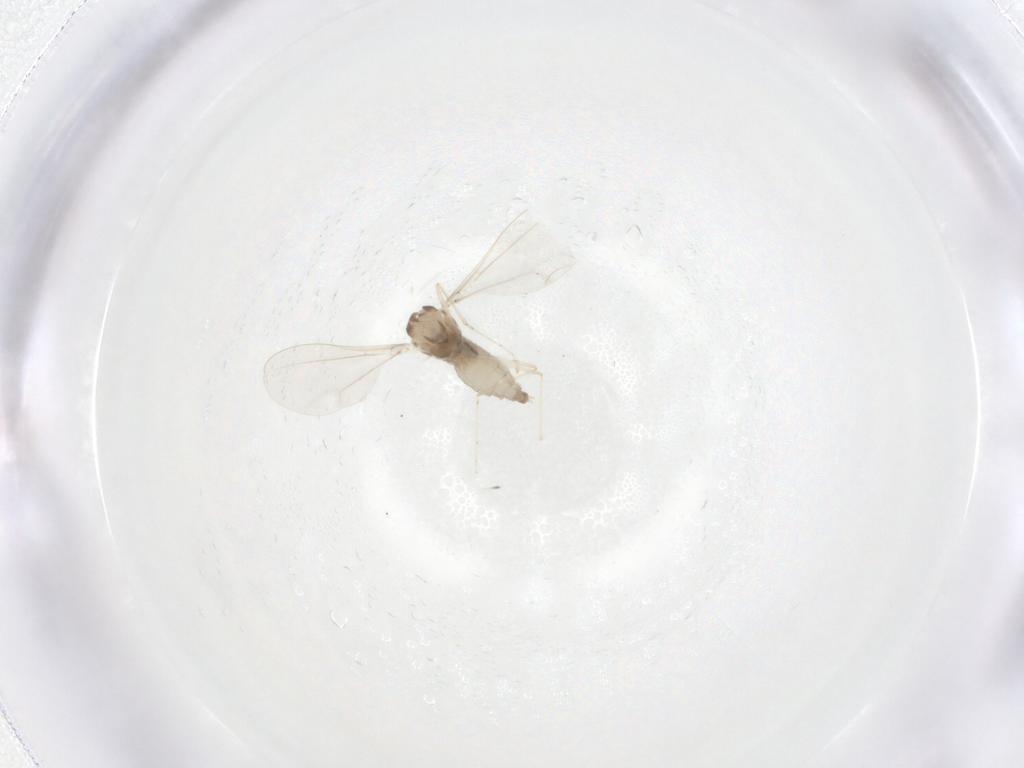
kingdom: Animalia
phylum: Arthropoda
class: Insecta
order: Diptera
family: Cecidomyiidae
